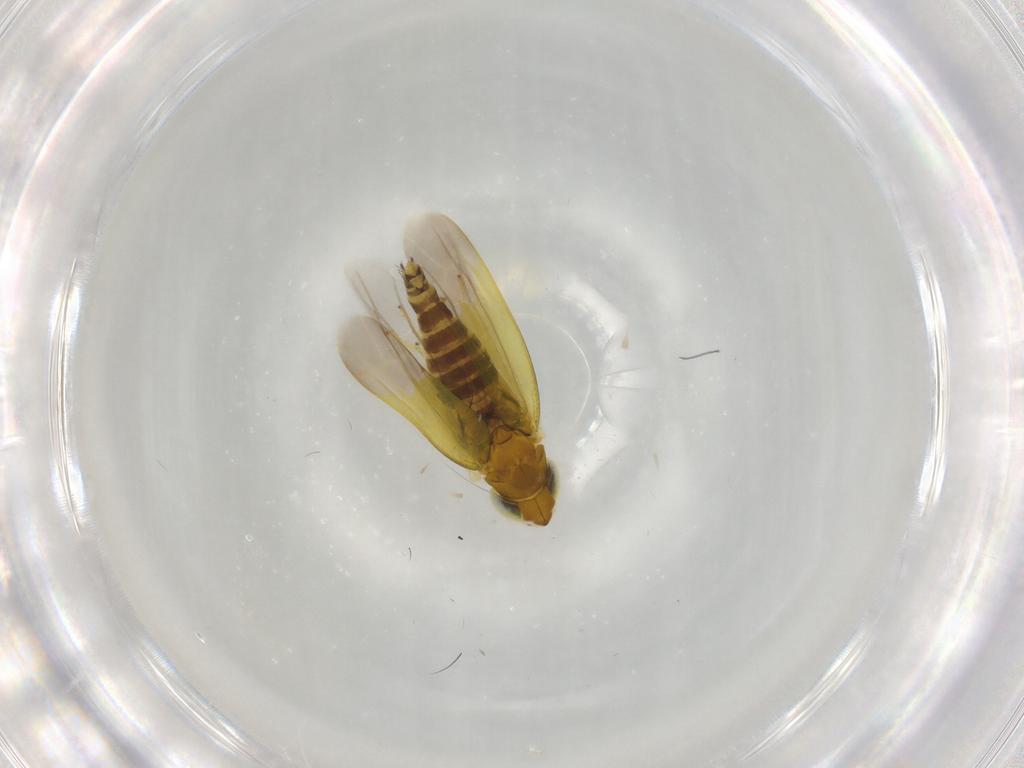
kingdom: Animalia
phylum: Arthropoda
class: Insecta
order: Hemiptera
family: Cicadellidae
